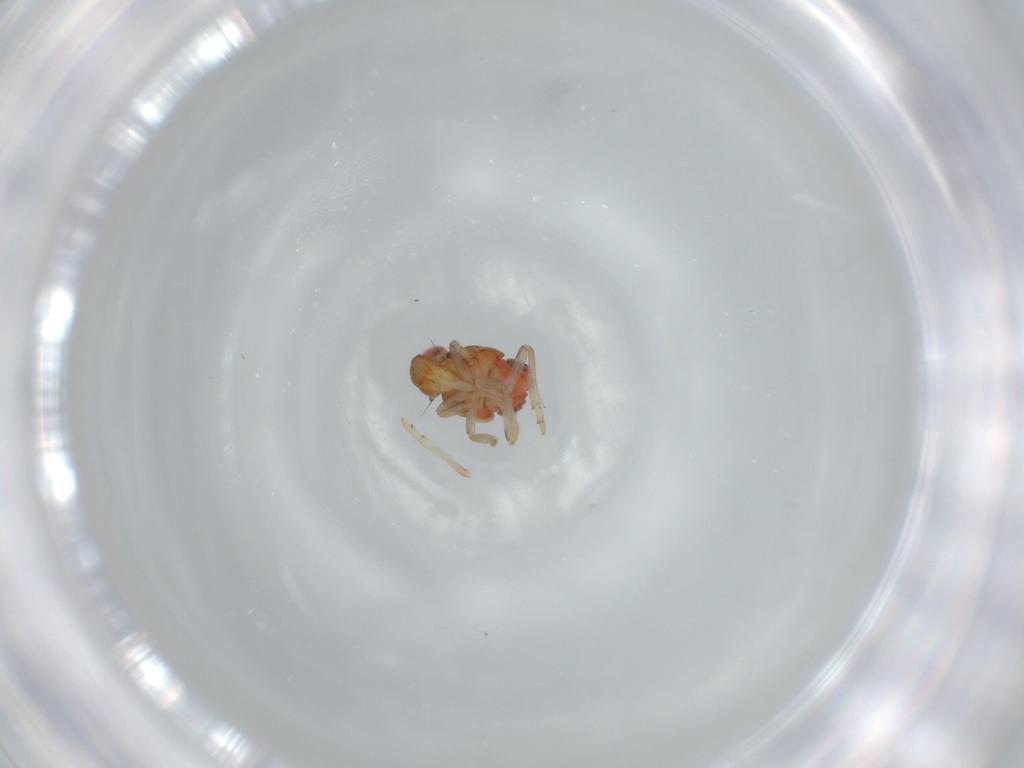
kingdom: Animalia
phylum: Arthropoda
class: Insecta
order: Hemiptera
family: Issidae
